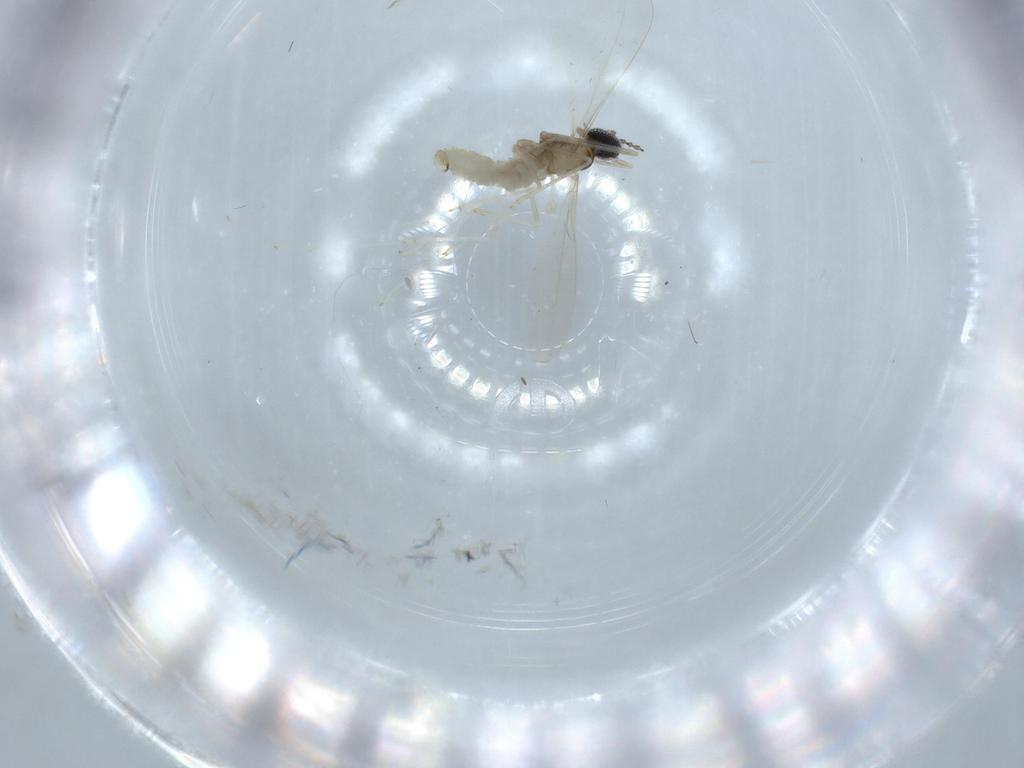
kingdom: Animalia
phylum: Arthropoda
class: Insecta
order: Diptera
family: Cecidomyiidae
